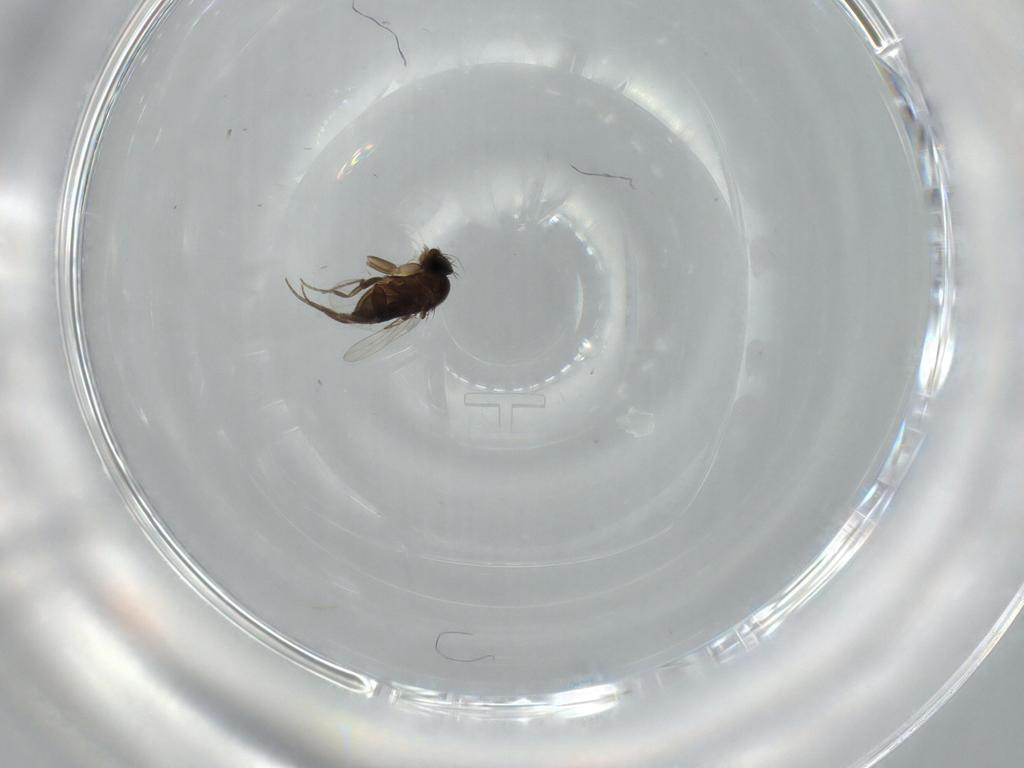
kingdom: Animalia
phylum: Arthropoda
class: Insecta
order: Diptera
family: Phoridae
